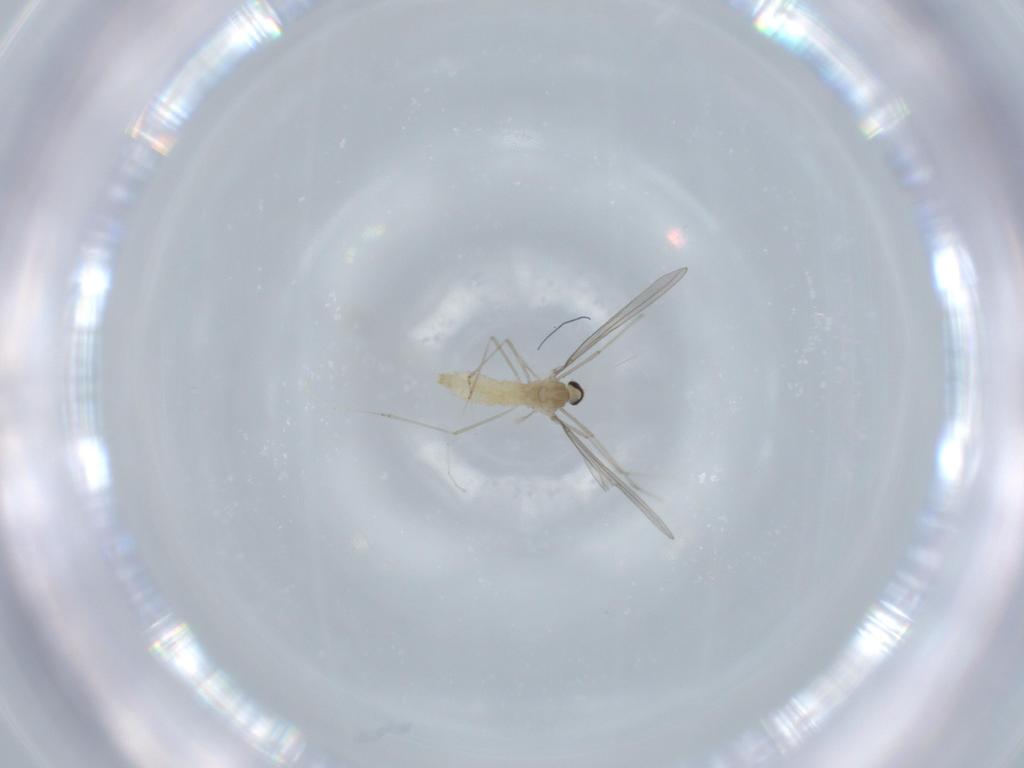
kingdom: Animalia
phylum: Arthropoda
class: Insecta
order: Diptera
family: Cecidomyiidae
